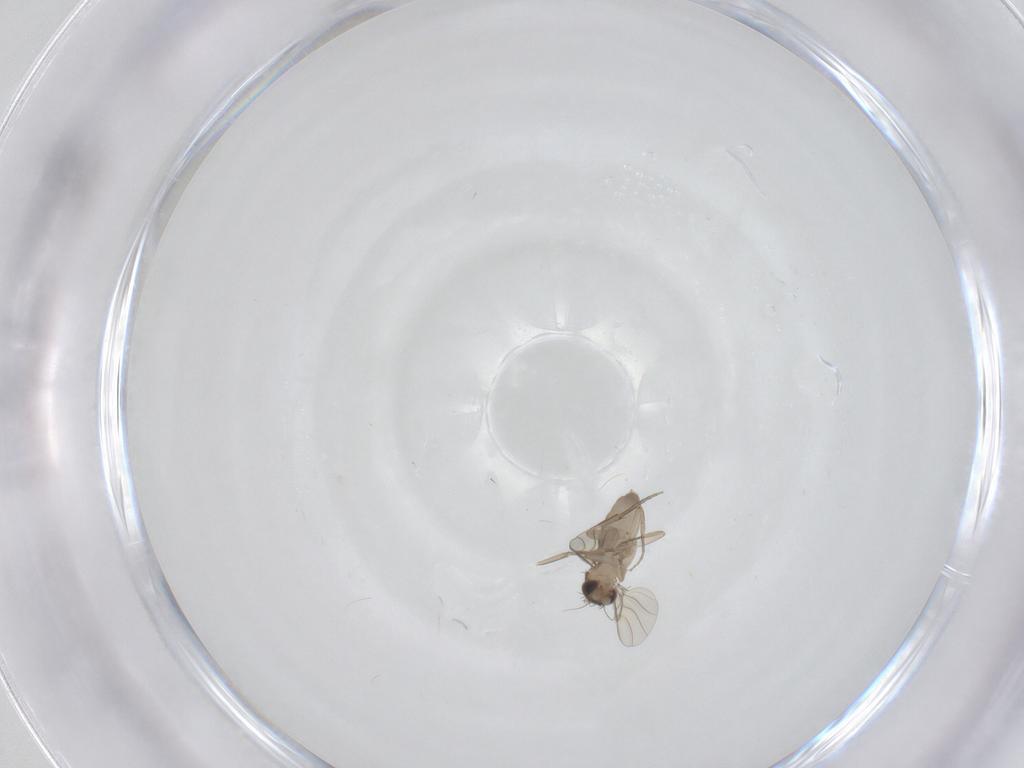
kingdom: Animalia
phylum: Arthropoda
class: Insecta
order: Diptera
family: Phoridae
